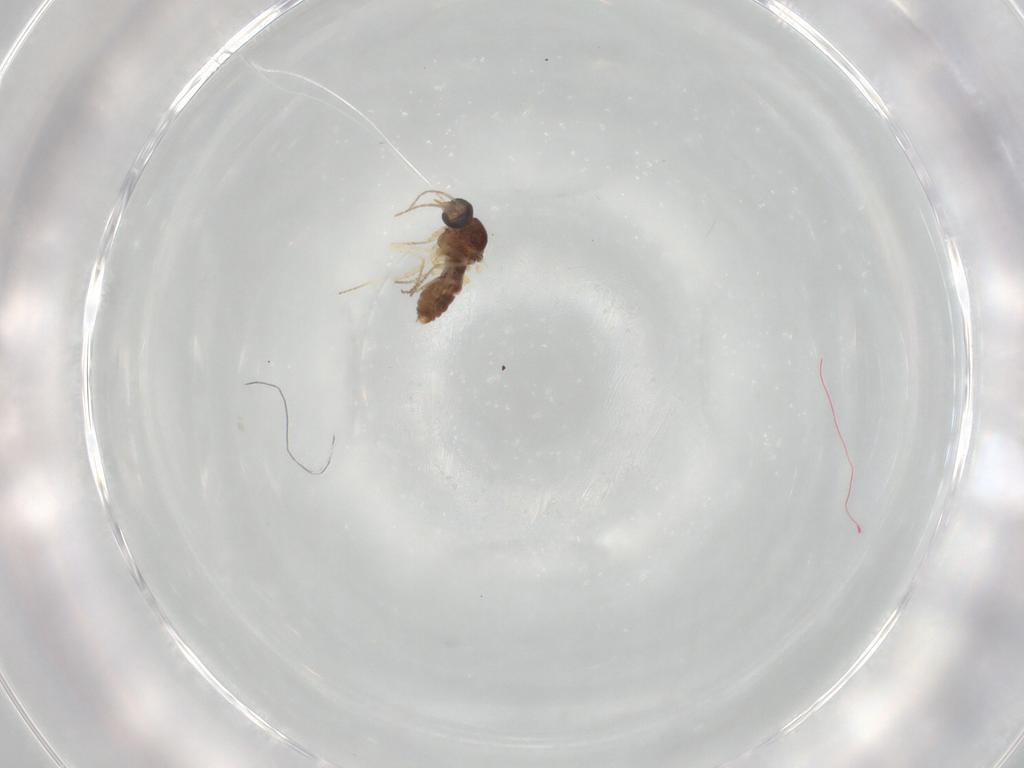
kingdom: Animalia
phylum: Arthropoda
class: Insecta
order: Diptera
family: Ceratopogonidae
